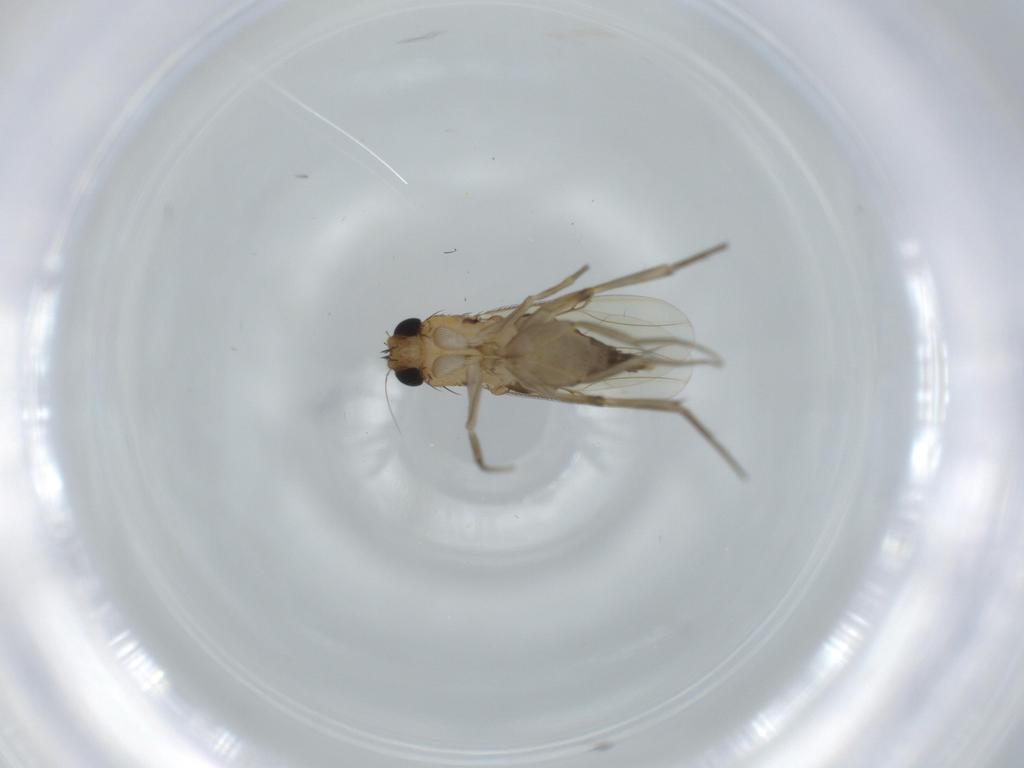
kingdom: Animalia
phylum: Arthropoda
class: Insecta
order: Diptera
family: Phoridae
